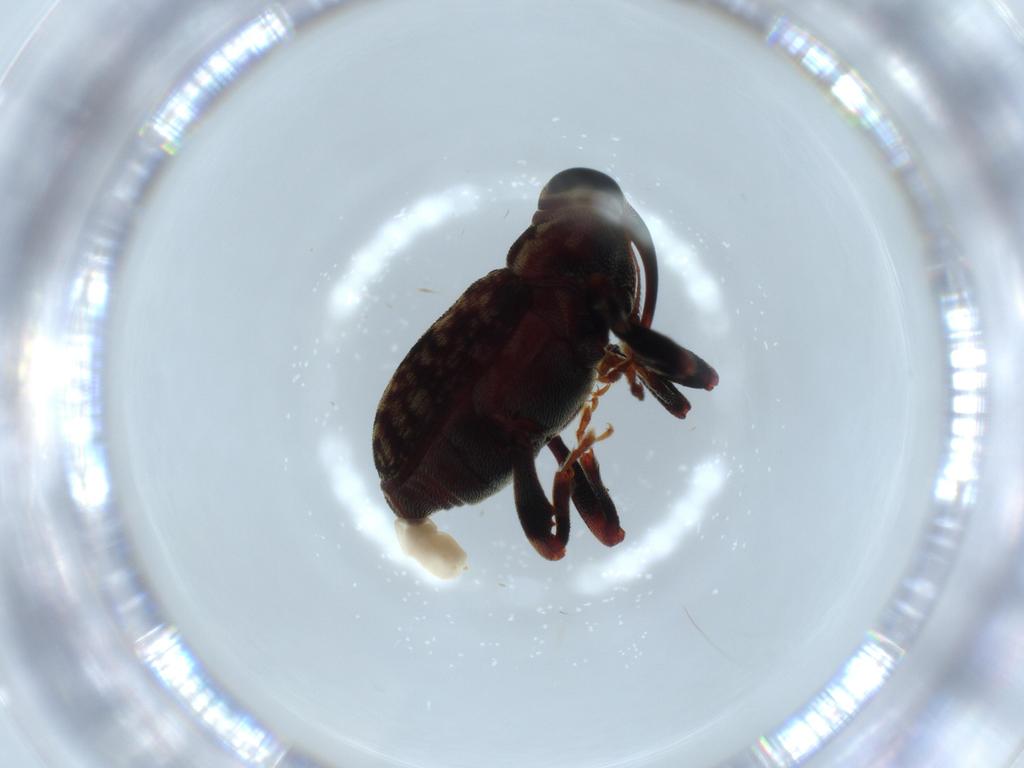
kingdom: Animalia
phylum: Arthropoda
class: Insecta
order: Coleoptera
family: Curculionidae
